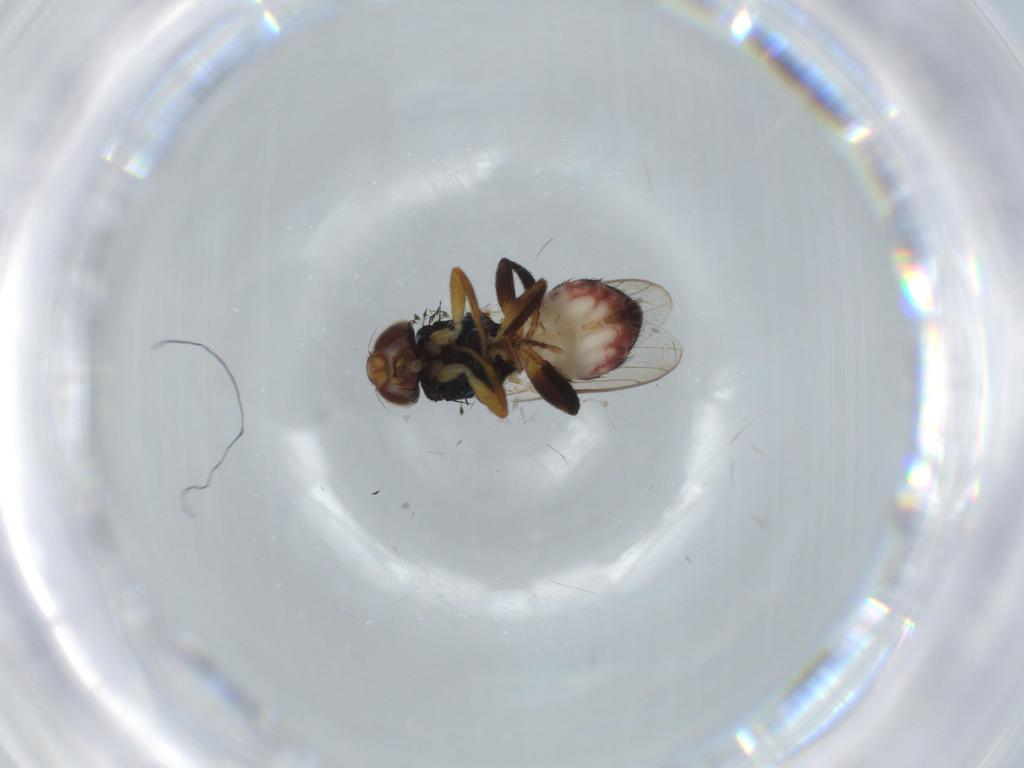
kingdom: Animalia
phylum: Arthropoda
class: Insecta
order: Diptera
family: Chloropidae
